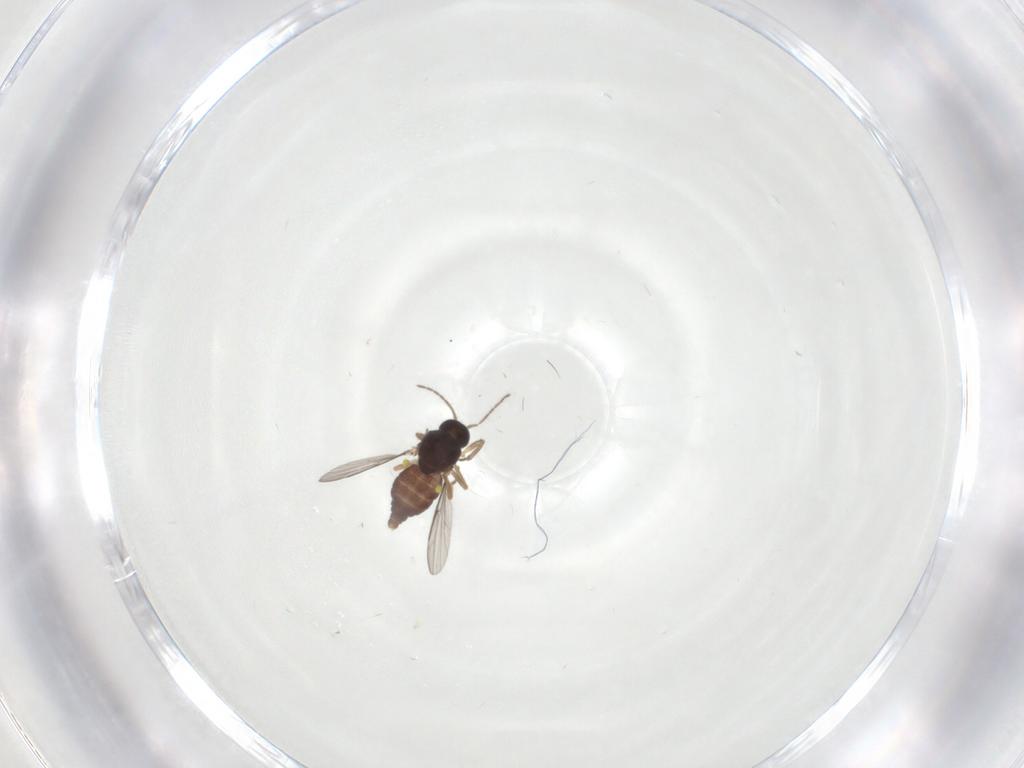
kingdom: Animalia
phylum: Arthropoda
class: Insecta
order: Diptera
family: Ceratopogonidae
